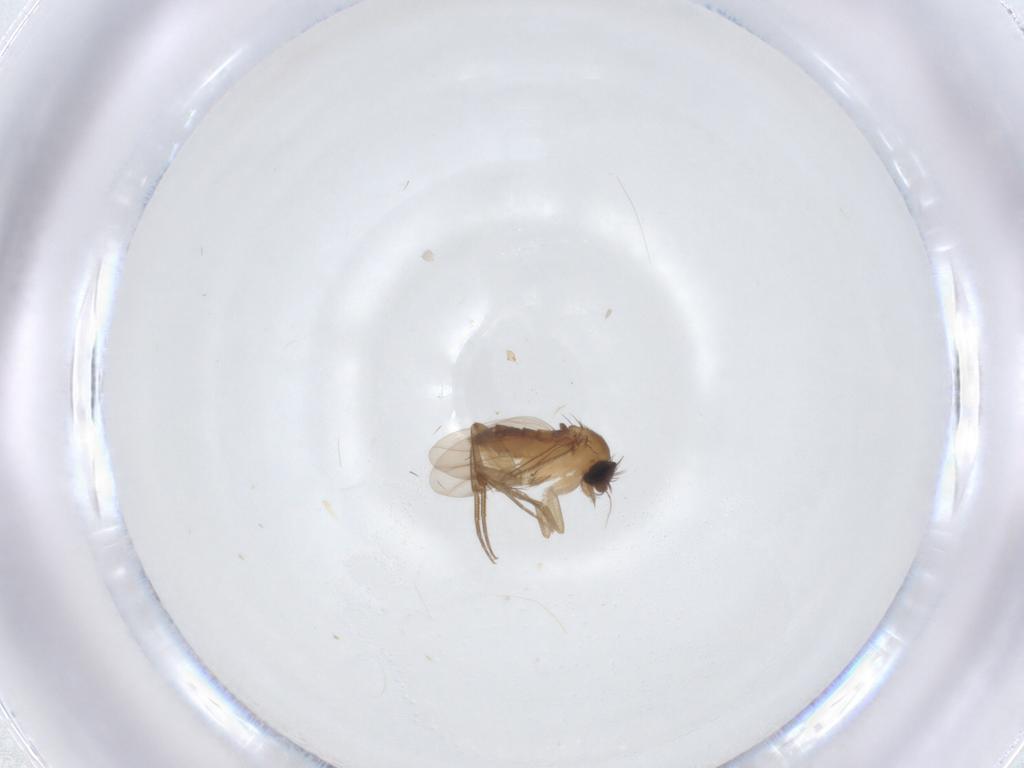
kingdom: Animalia
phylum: Arthropoda
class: Insecta
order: Diptera
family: Phoridae
